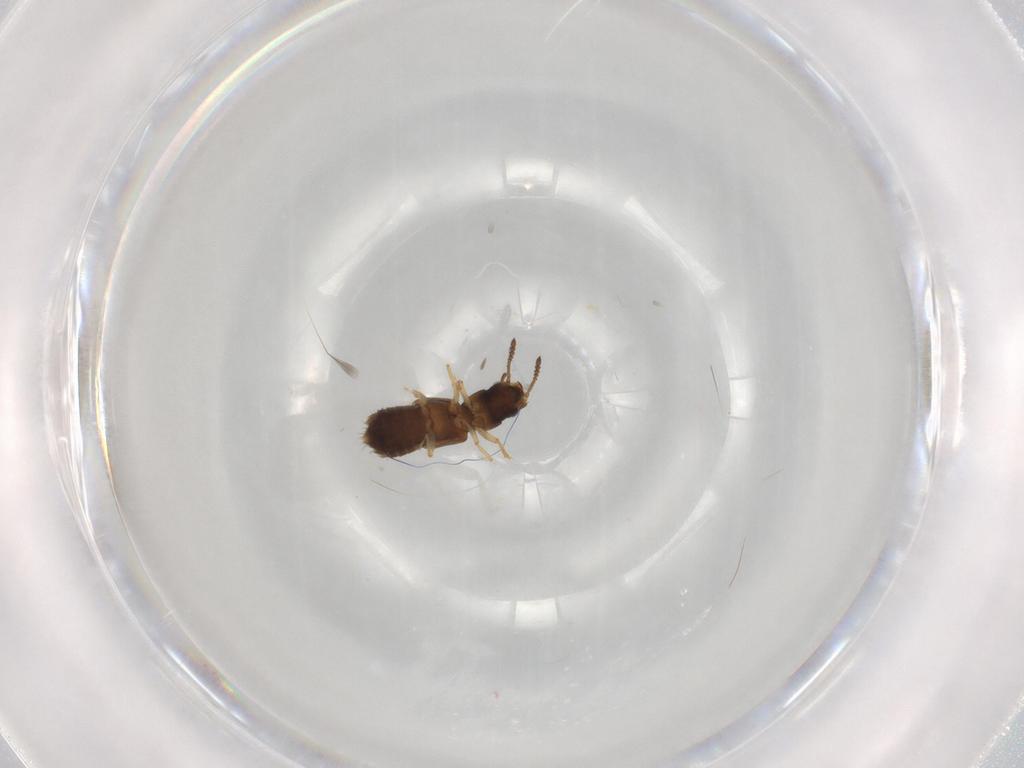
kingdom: Animalia
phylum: Arthropoda
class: Insecta
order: Coleoptera
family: Staphylinidae
